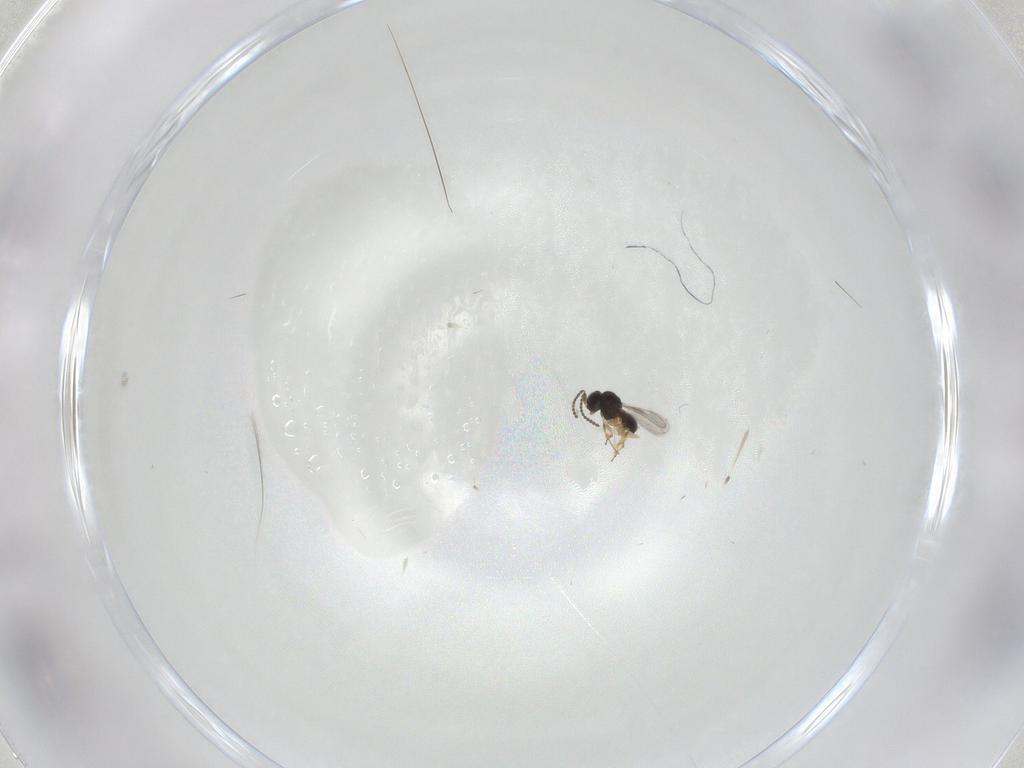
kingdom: Animalia
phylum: Arthropoda
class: Insecta
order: Hymenoptera
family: Scelionidae
